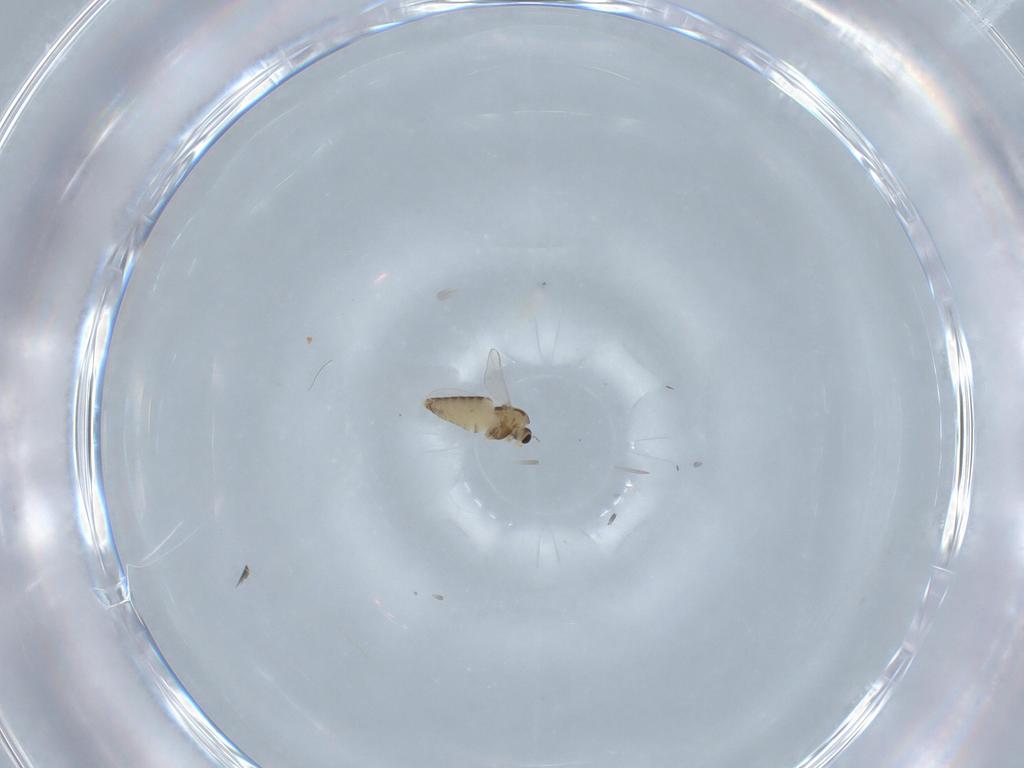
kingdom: Animalia
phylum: Arthropoda
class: Insecta
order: Diptera
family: Chironomidae
